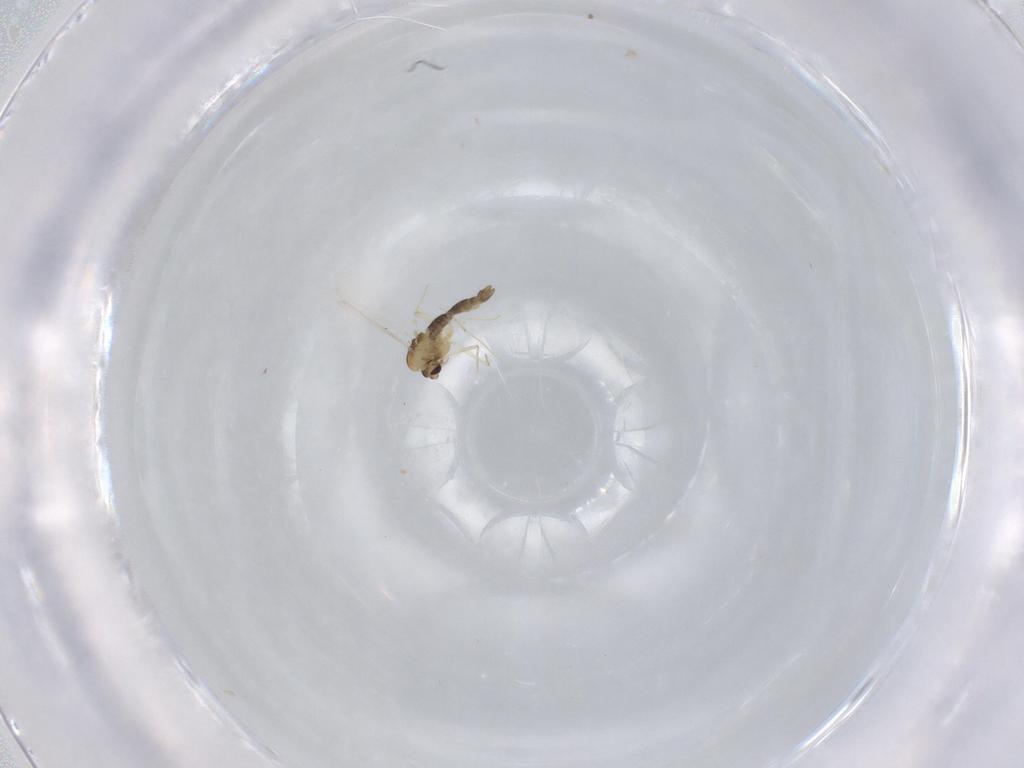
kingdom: Animalia
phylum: Arthropoda
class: Insecta
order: Diptera
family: Chironomidae
